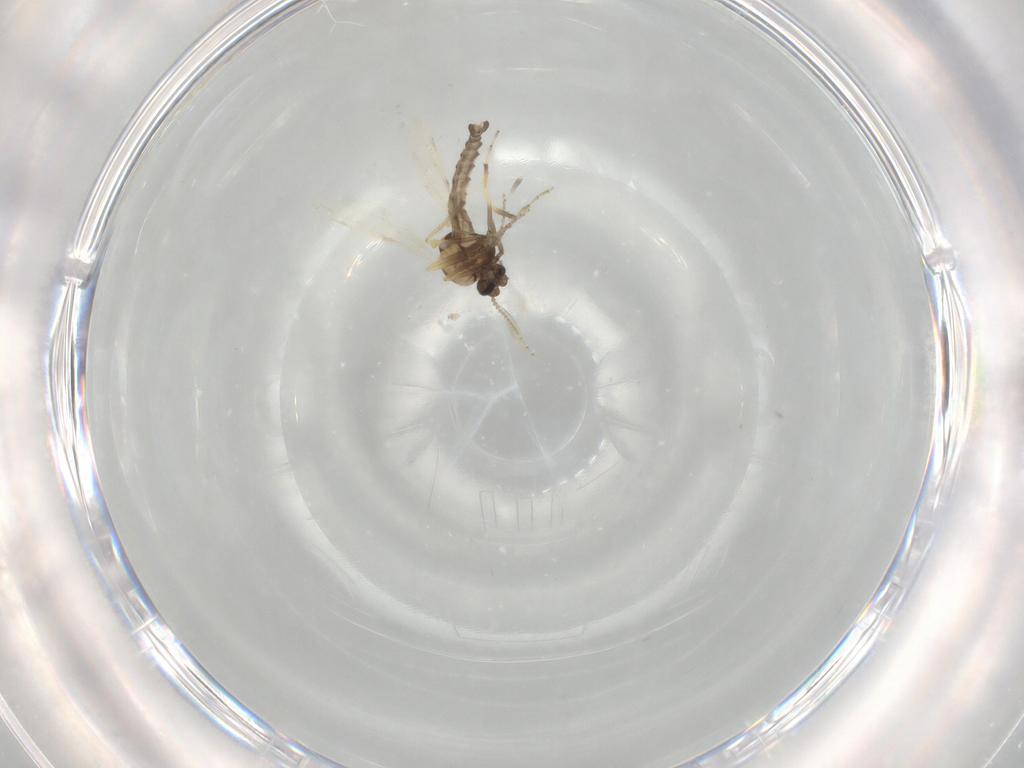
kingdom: Animalia
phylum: Arthropoda
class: Insecta
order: Diptera
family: Ceratopogonidae
